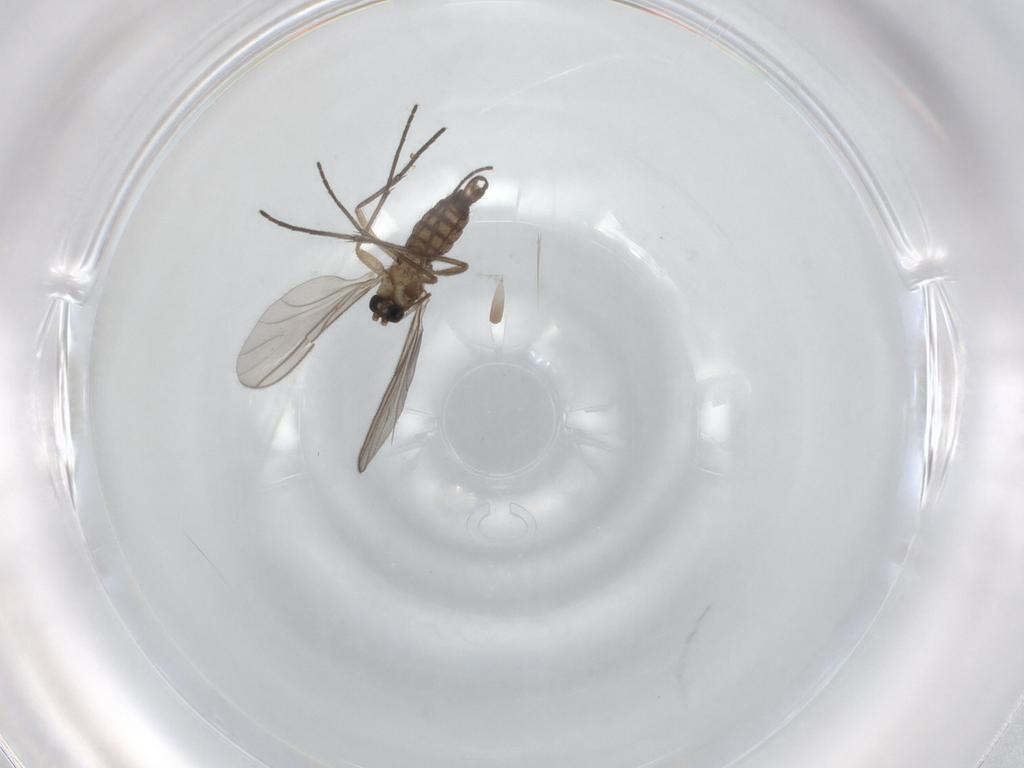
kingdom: Animalia
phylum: Arthropoda
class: Insecta
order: Diptera
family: Sciaridae
